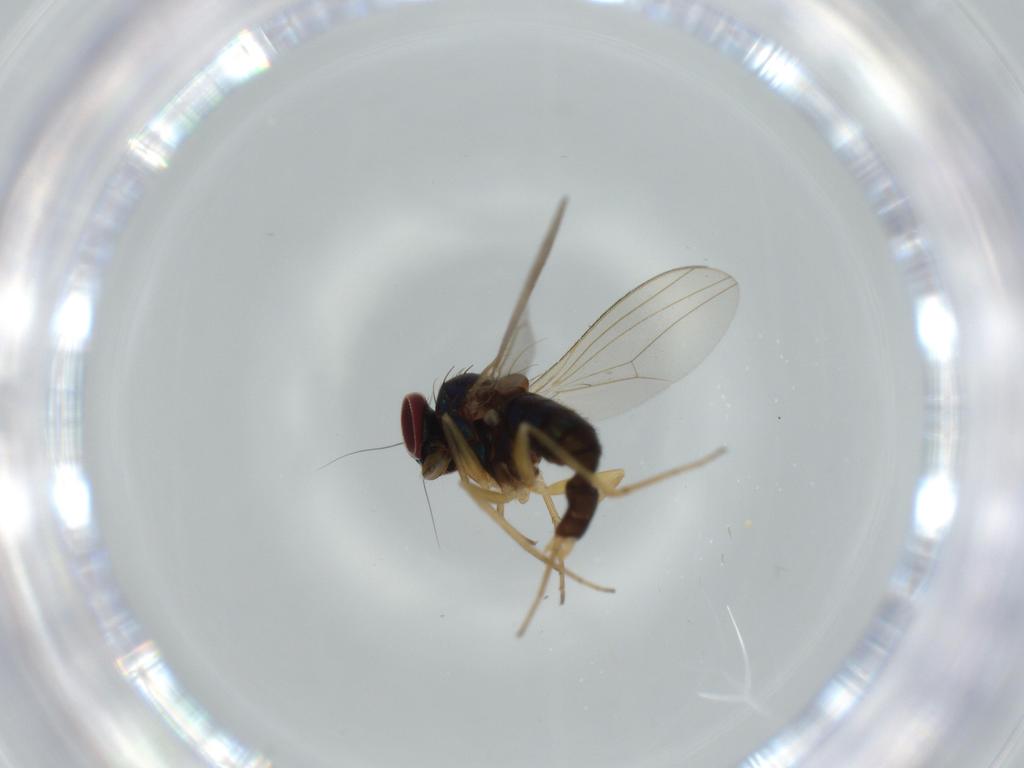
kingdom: Animalia
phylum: Arthropoda
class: Insecta
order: Diptera
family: Dolichopodidae
